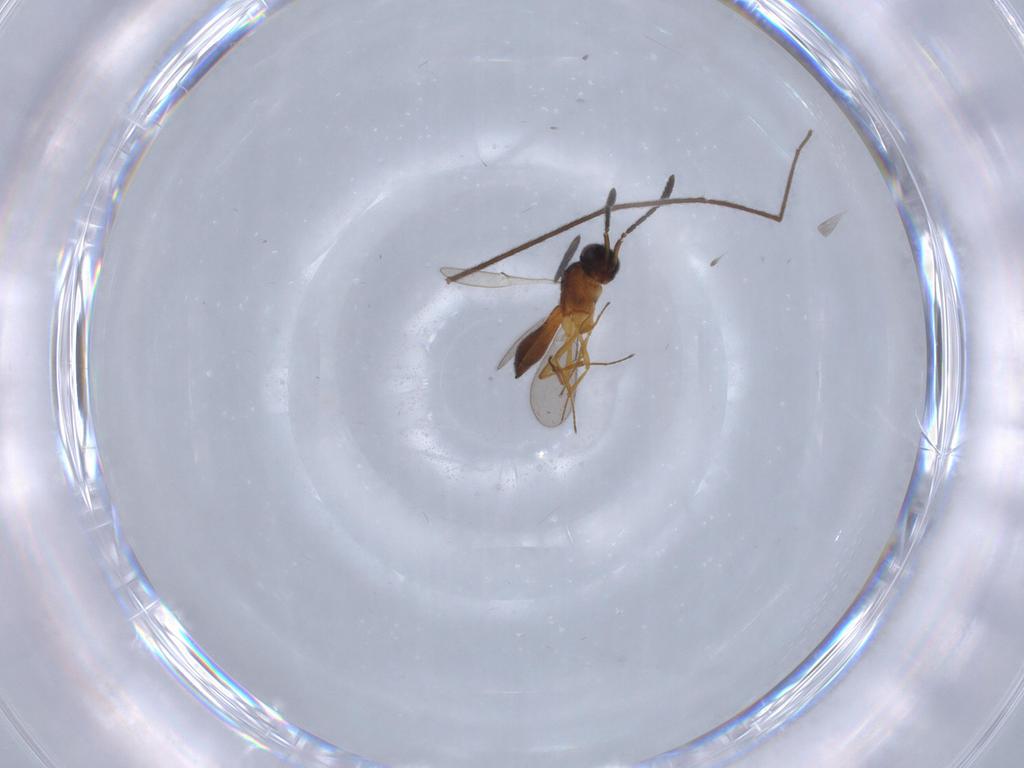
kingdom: Animalia
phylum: Arthropoda
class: Insecta
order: Hymenoptera
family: Scelionidae
